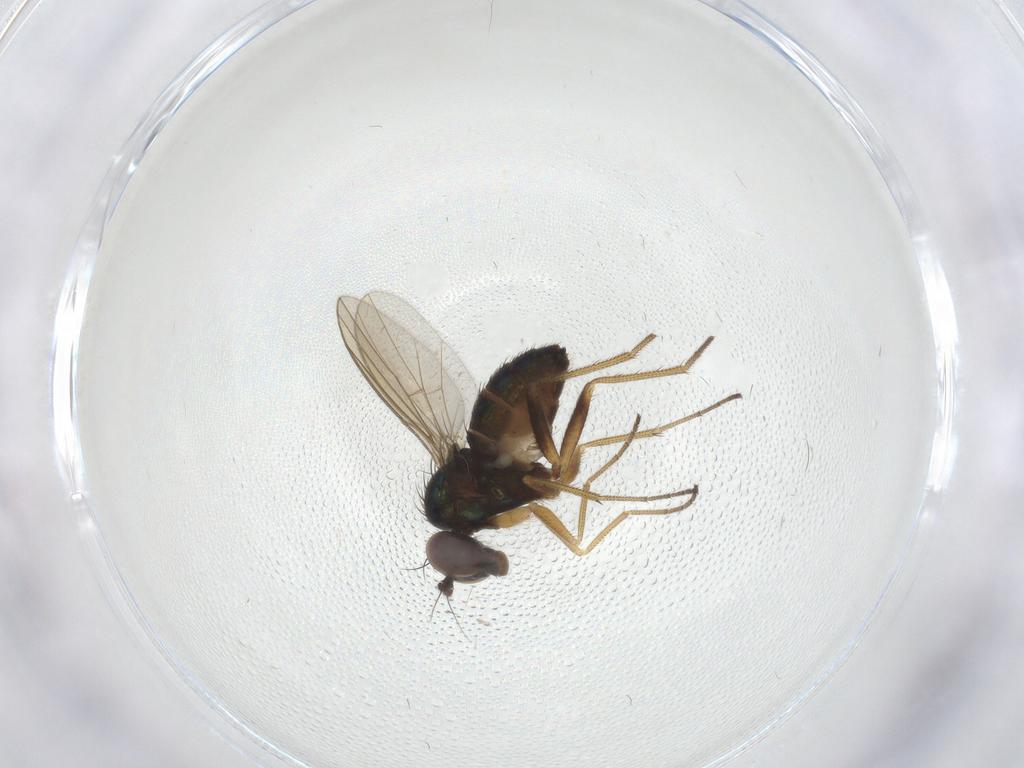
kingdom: Animalia
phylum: Arthropoda
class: Insecta
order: Diptera
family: Dolichopodidae
